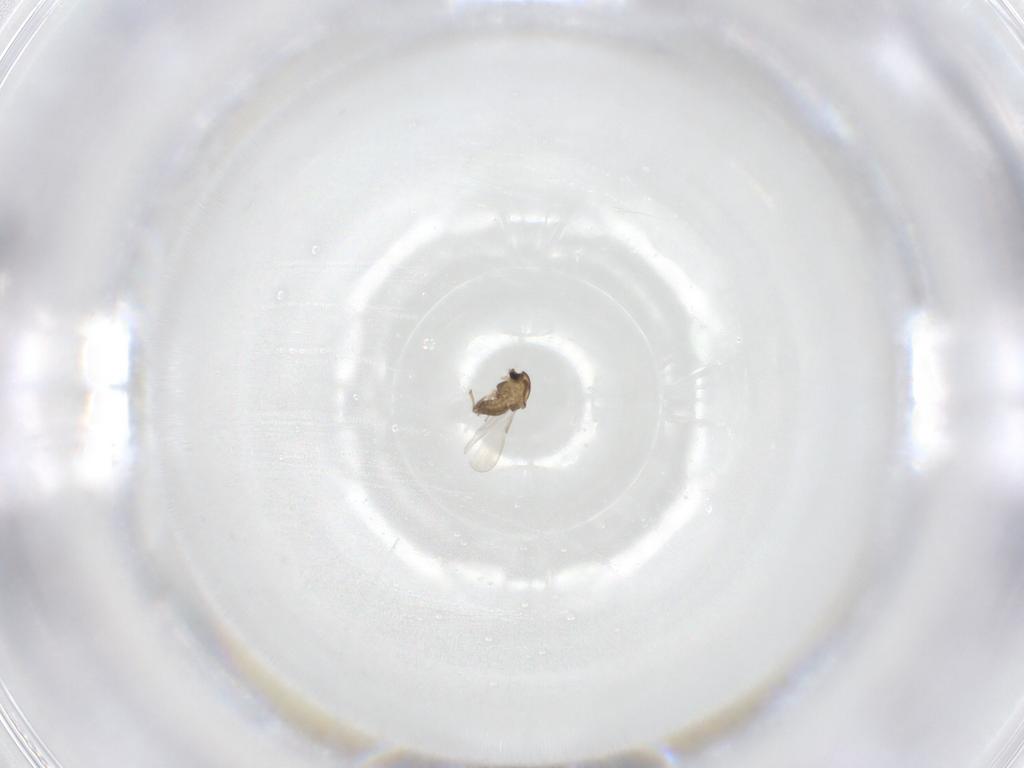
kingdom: Animalia
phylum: Arthropoda
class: Insecta
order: Diptera
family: Chironomidae
